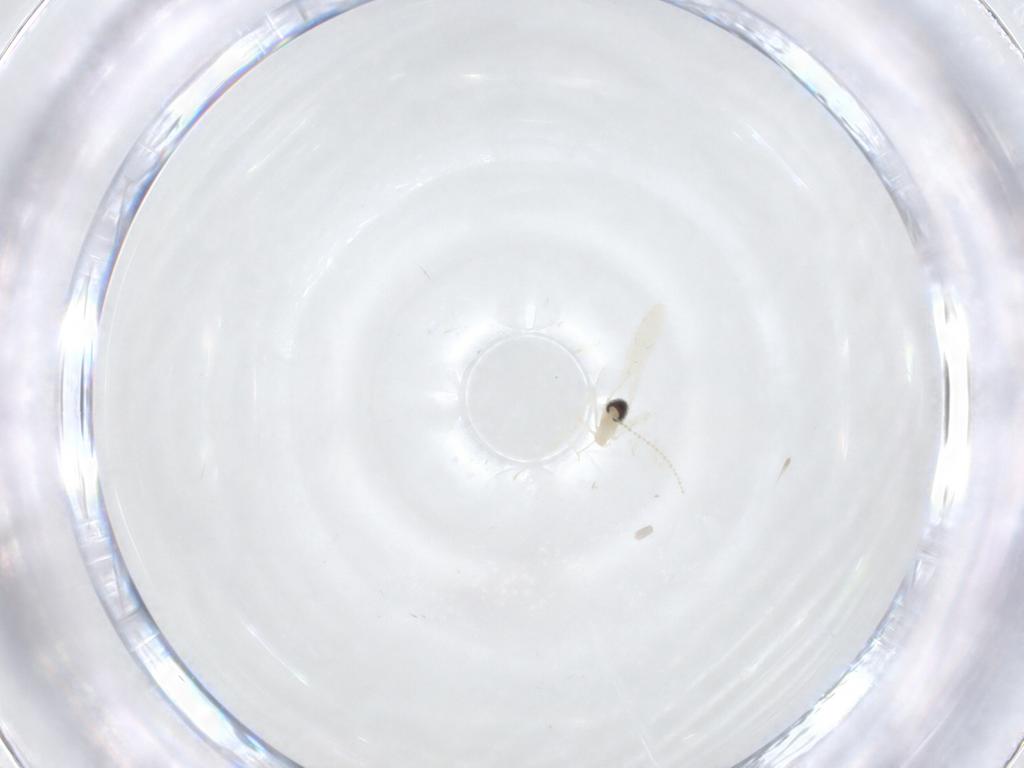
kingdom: Animalia
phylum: Arthropoda
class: Insecta
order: Diptera
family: Cecidomyiidae
